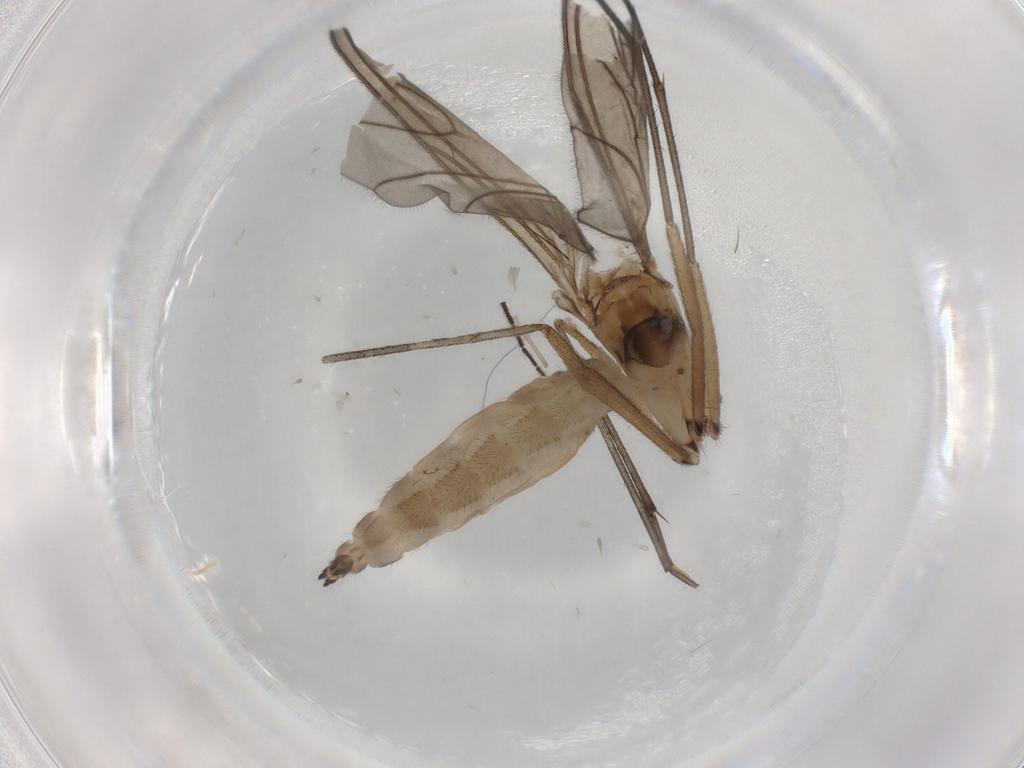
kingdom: Animalia
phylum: Arthropoda
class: Insecta
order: Diptera
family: Sciaridae
